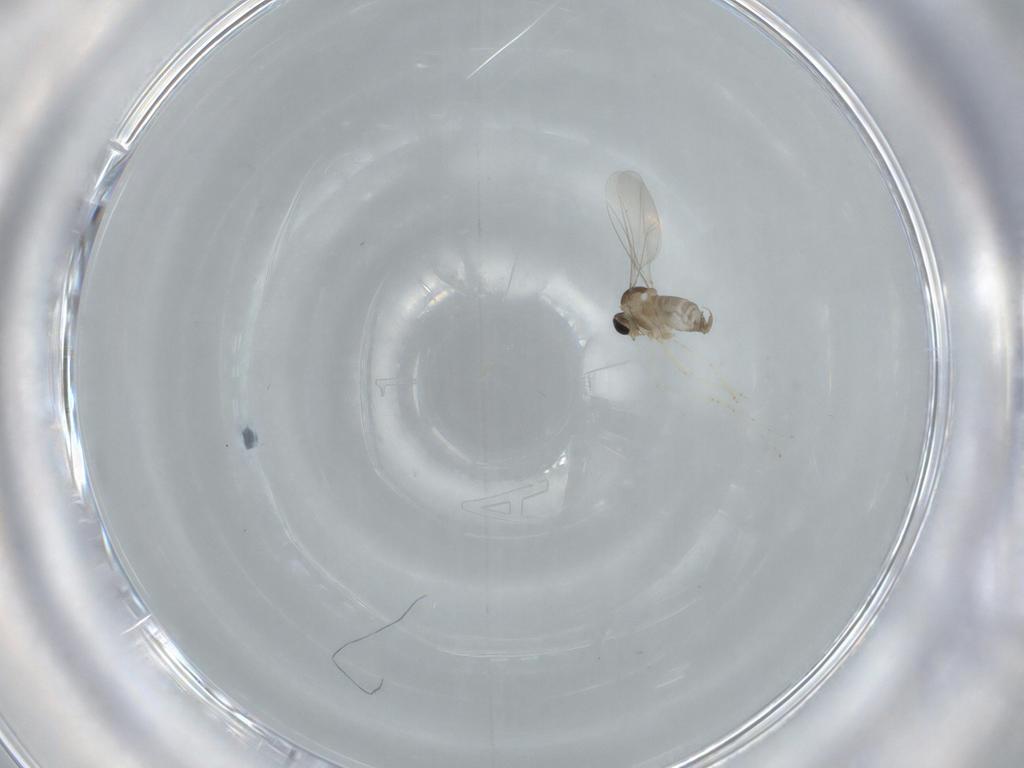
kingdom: Animalia
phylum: Arthropoda
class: Insecta
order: Diptera
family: Cecidomyiidae
